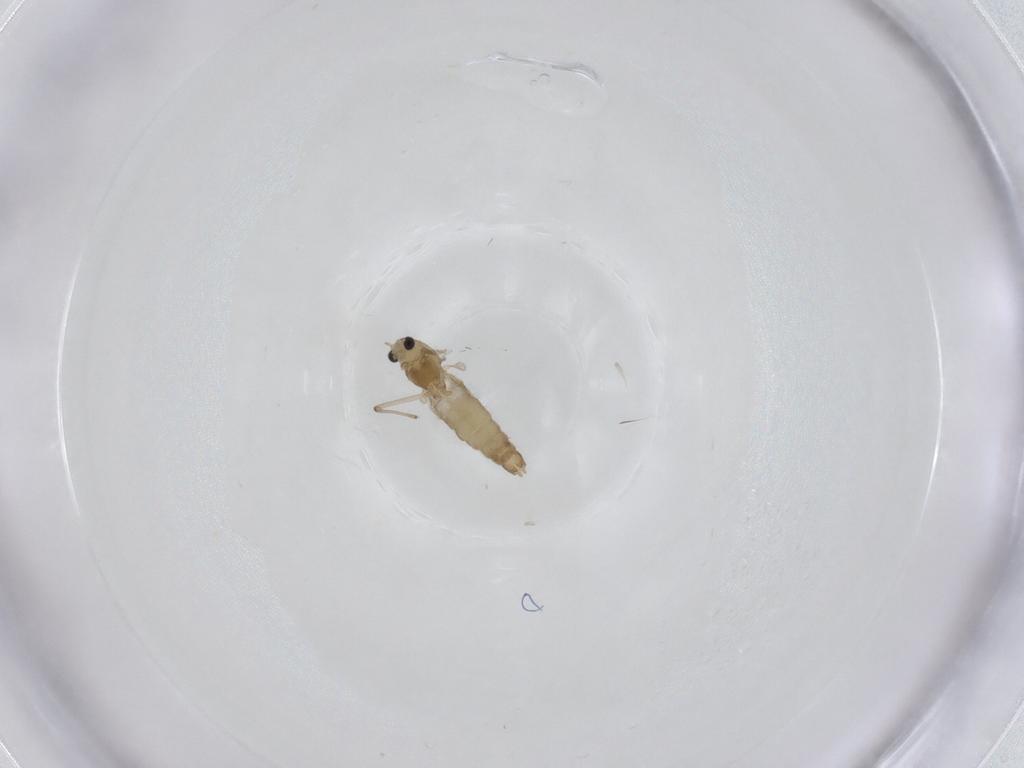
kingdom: Animalia
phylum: Arthropoda
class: Insecta
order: Diptera
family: Chironomidae
